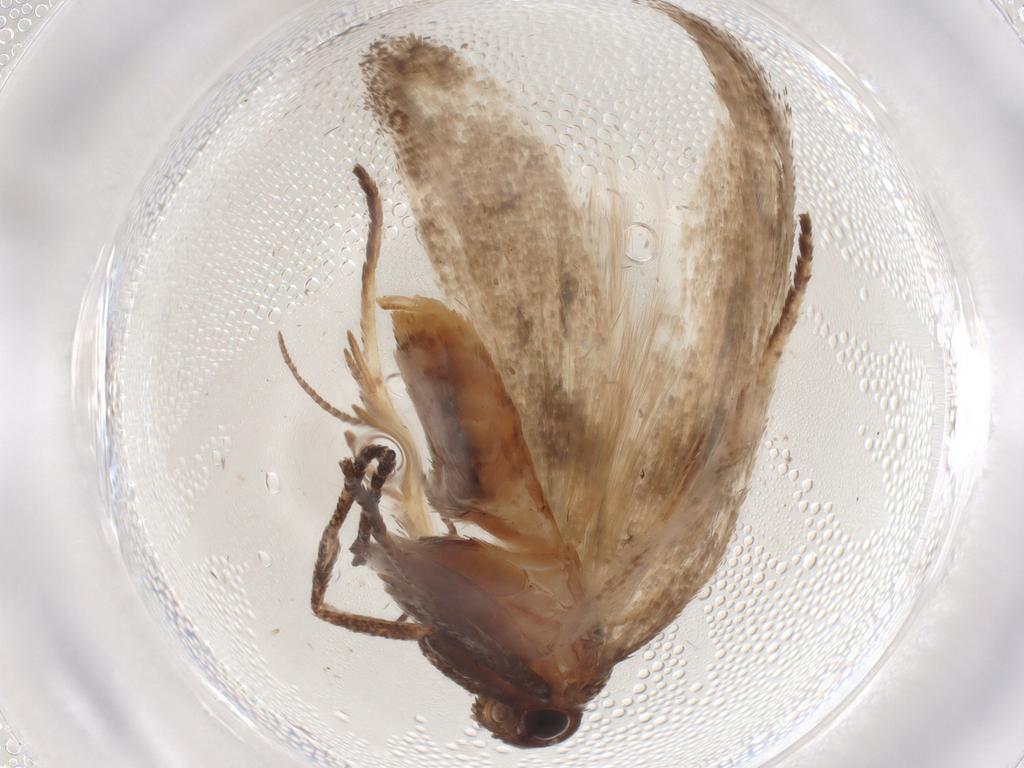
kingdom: Animalia
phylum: Arthropoda
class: Insecta
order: Lepidoptera
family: Cosmopterigidae
